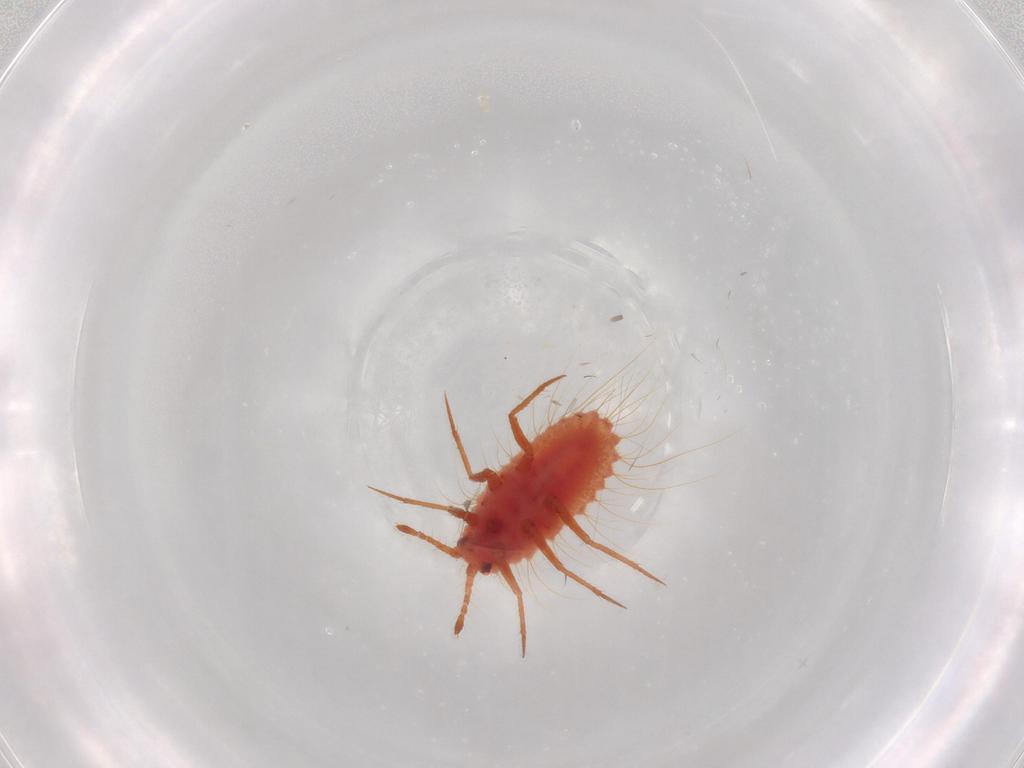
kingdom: Animalia
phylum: Arthropoda
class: Insecta
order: Hemiptera
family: Monophlebidae
